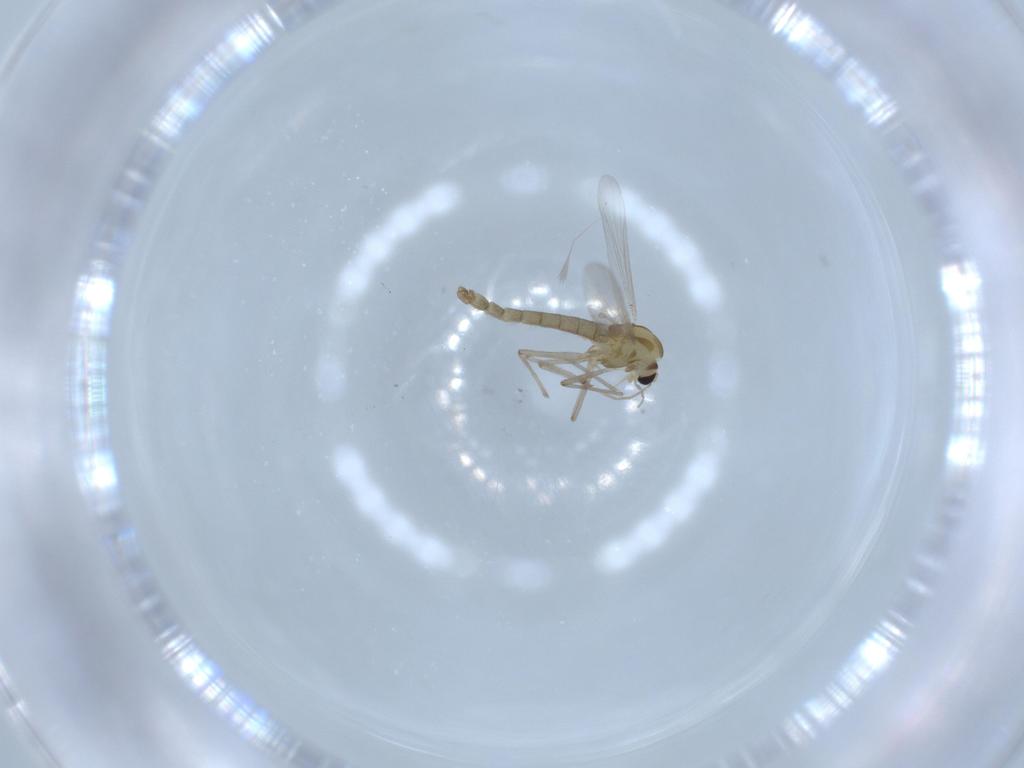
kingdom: Animalia
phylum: Arthropoda
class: Insecta
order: Diptera
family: Chironomidae
